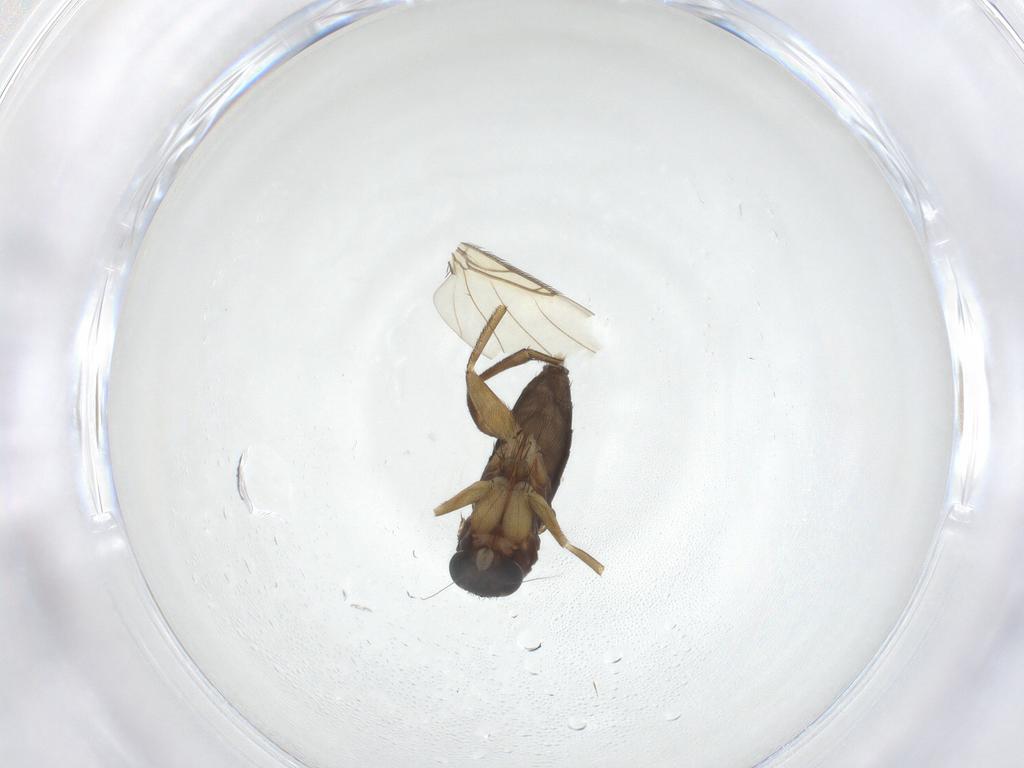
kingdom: Animalia
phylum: Arthropoda
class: Insecta
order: Diptera
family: Phoridae
